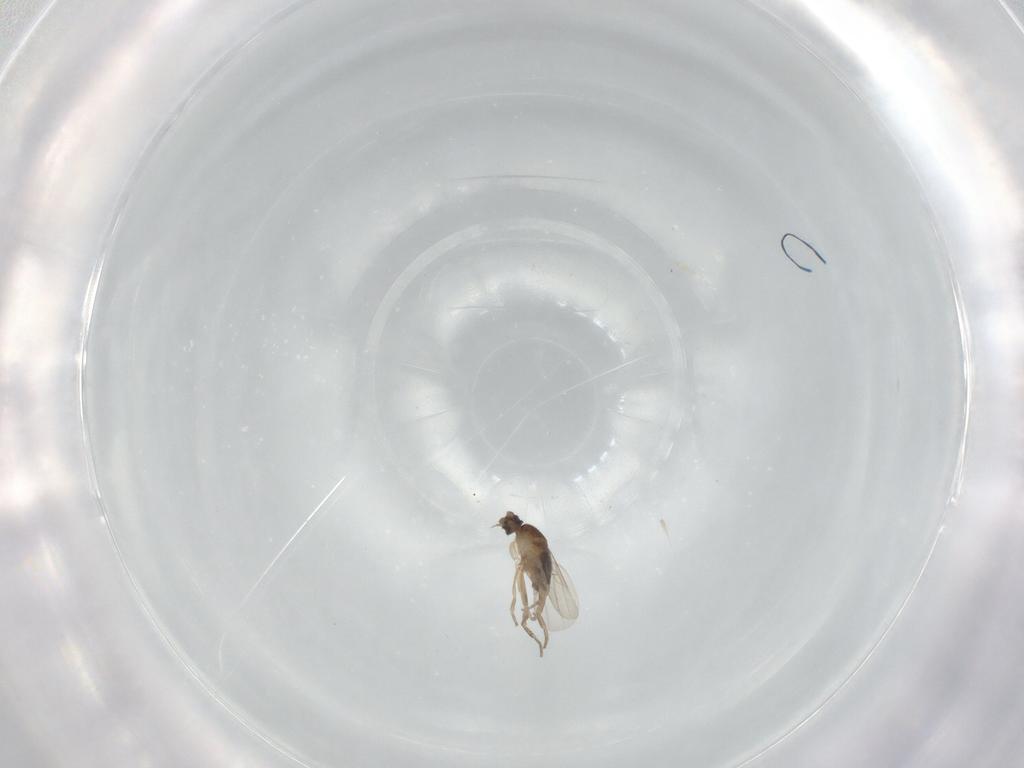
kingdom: Animalia
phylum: Arthropoda
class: Insecta
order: Diptera
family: Phoridae
